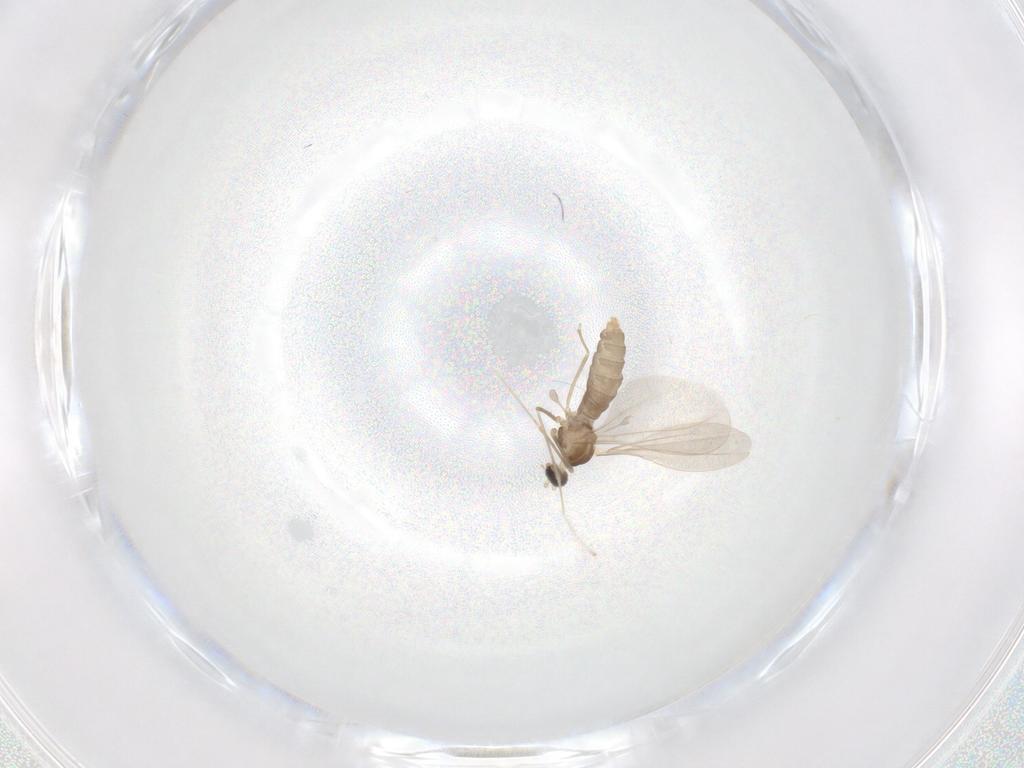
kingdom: Animalia
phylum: Arthropoda
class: Insecta
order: Diptera
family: Cecidomyiidae
